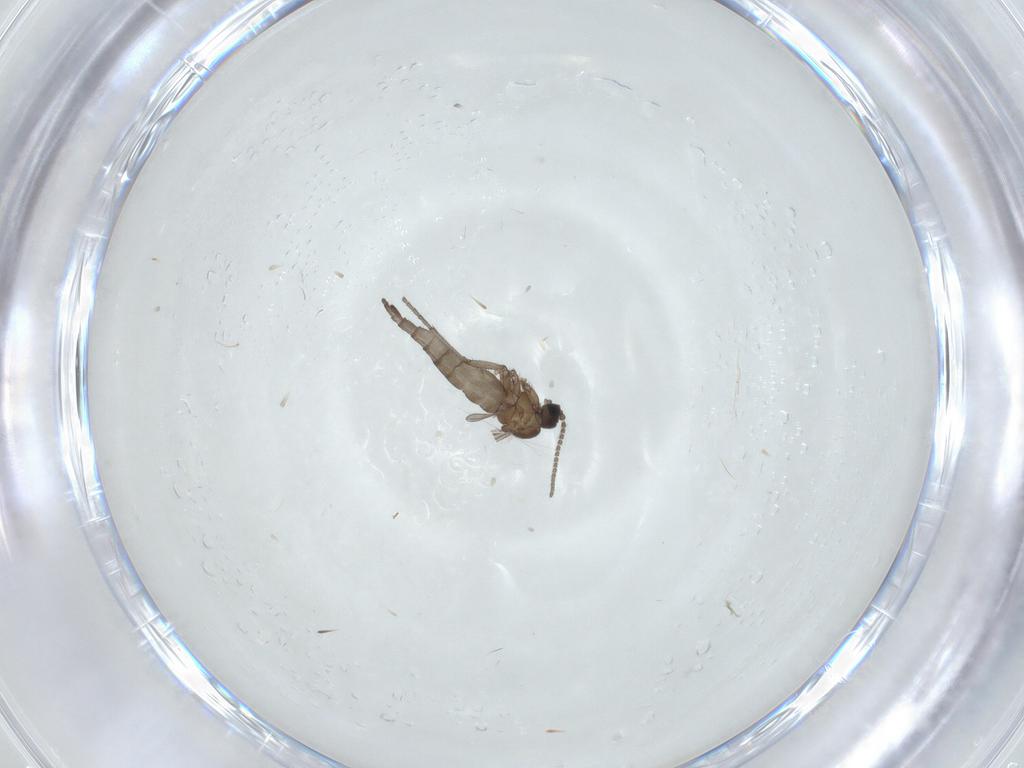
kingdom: Animalia
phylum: Arthropoda
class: Insecta
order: Diptera
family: Sciaridae
